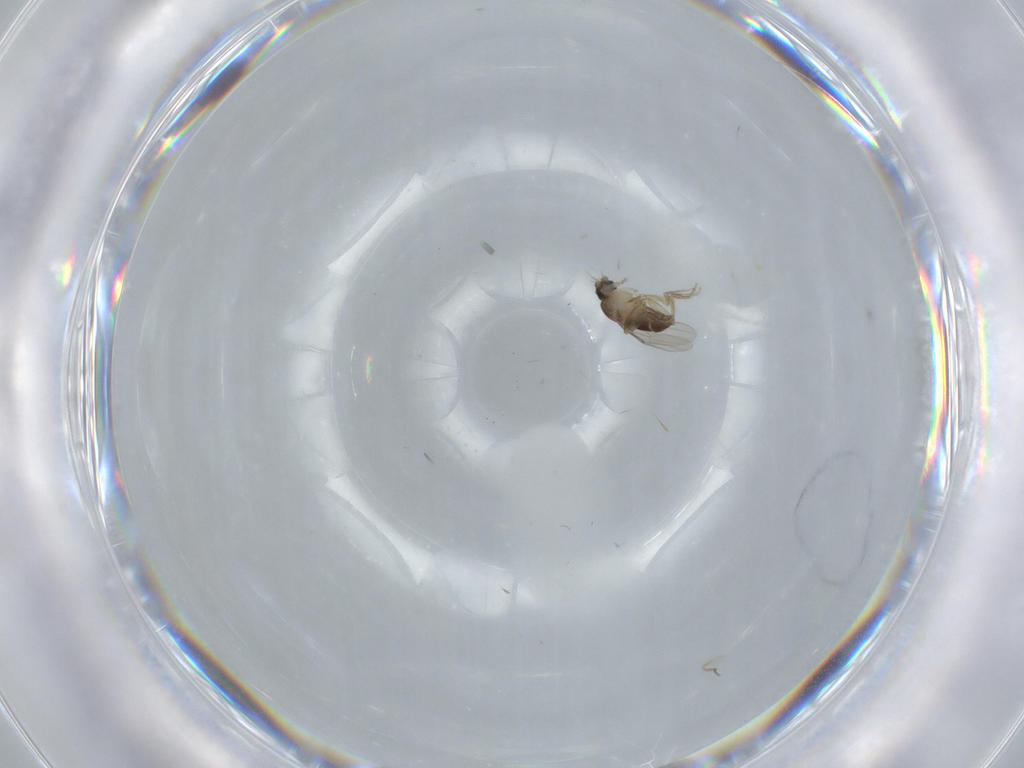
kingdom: Animalia
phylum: Arthropoda
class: Insecta
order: Diptera
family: Phoridae
